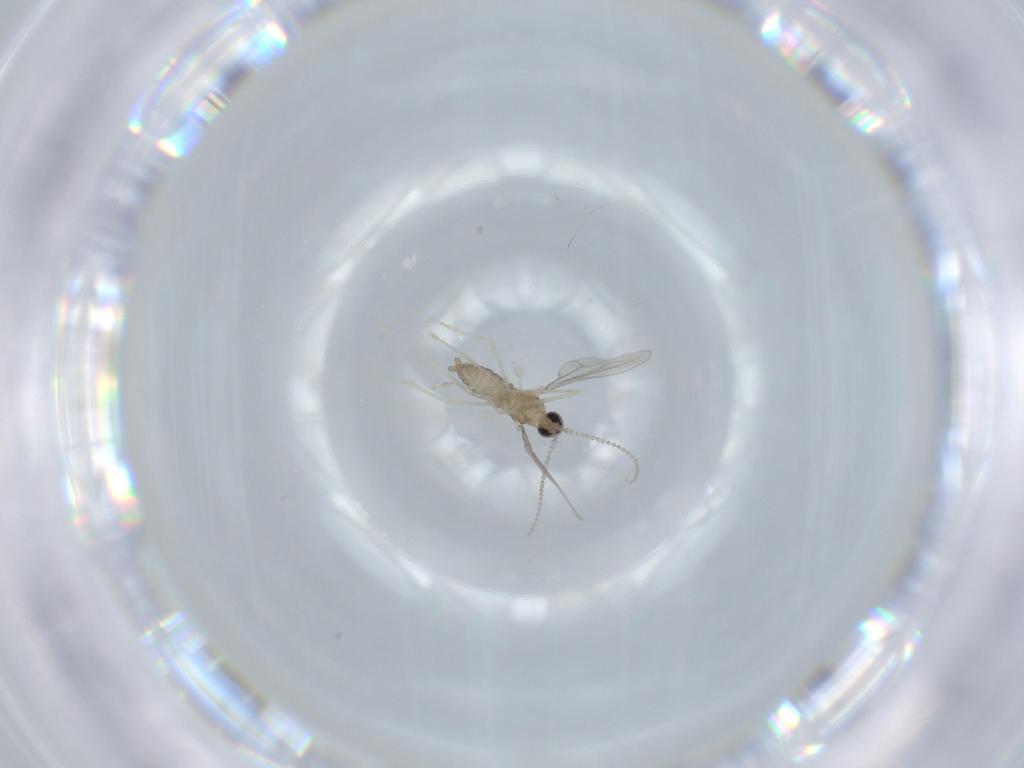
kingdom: Animalia
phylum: Arthropoda
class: Insecta
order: Diptera
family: Cecidomyiidae
